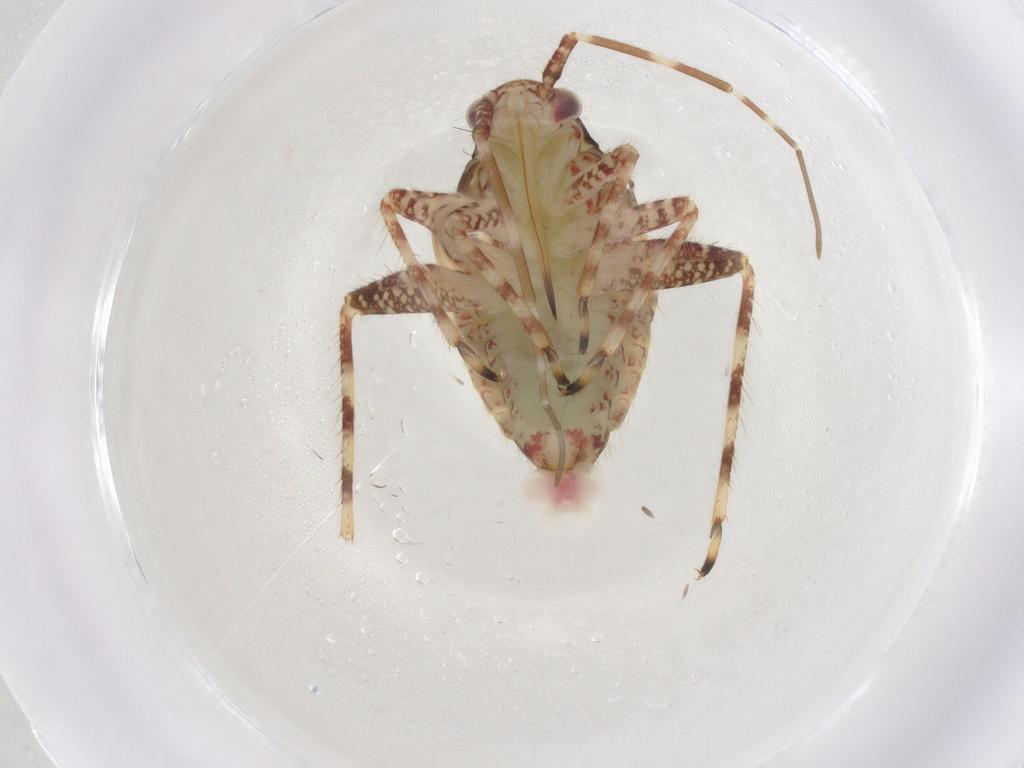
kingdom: Animalia
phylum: Arthropoda
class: Insecta
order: Hemiptera
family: Miridae
